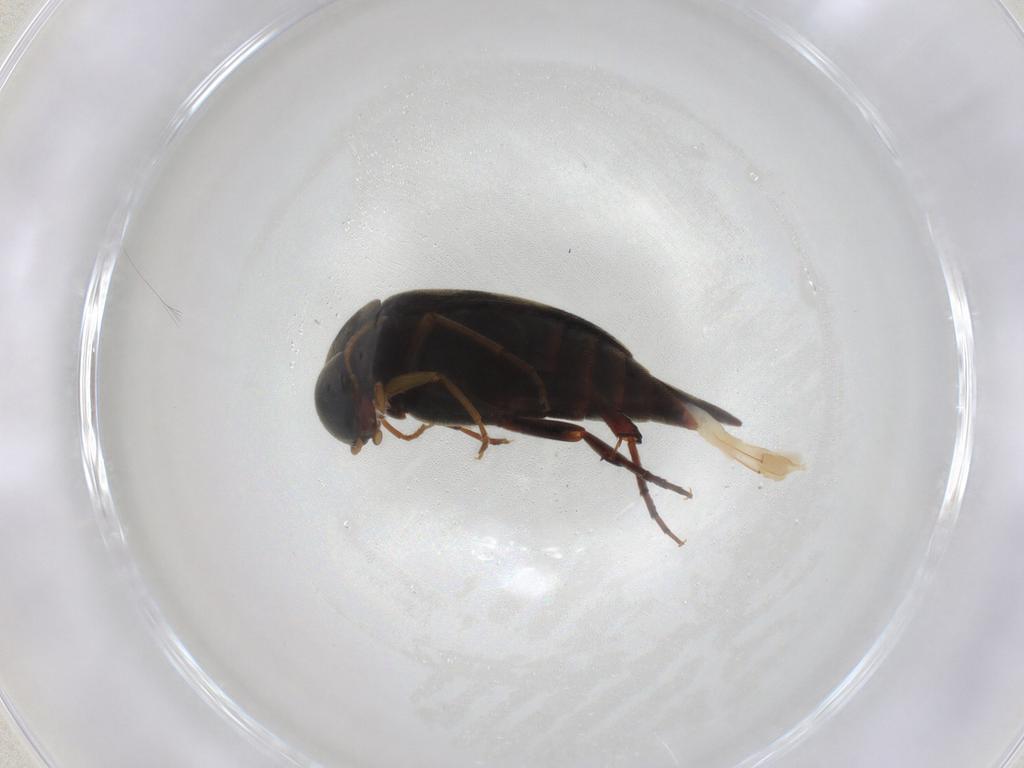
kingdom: Animalia
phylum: Arthropoda
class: Insecta
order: Coleoptera
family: Mordellidae
